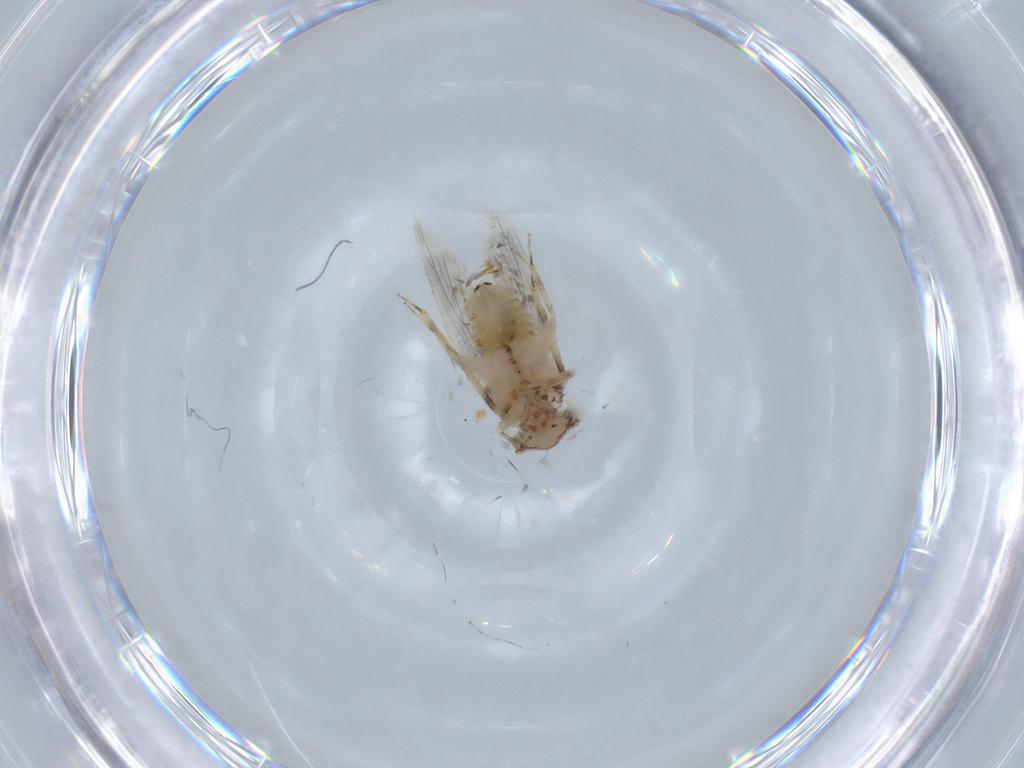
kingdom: Animalia
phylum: Arthropoda
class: Insecta
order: Psocodea
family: Lepidopsocidae
